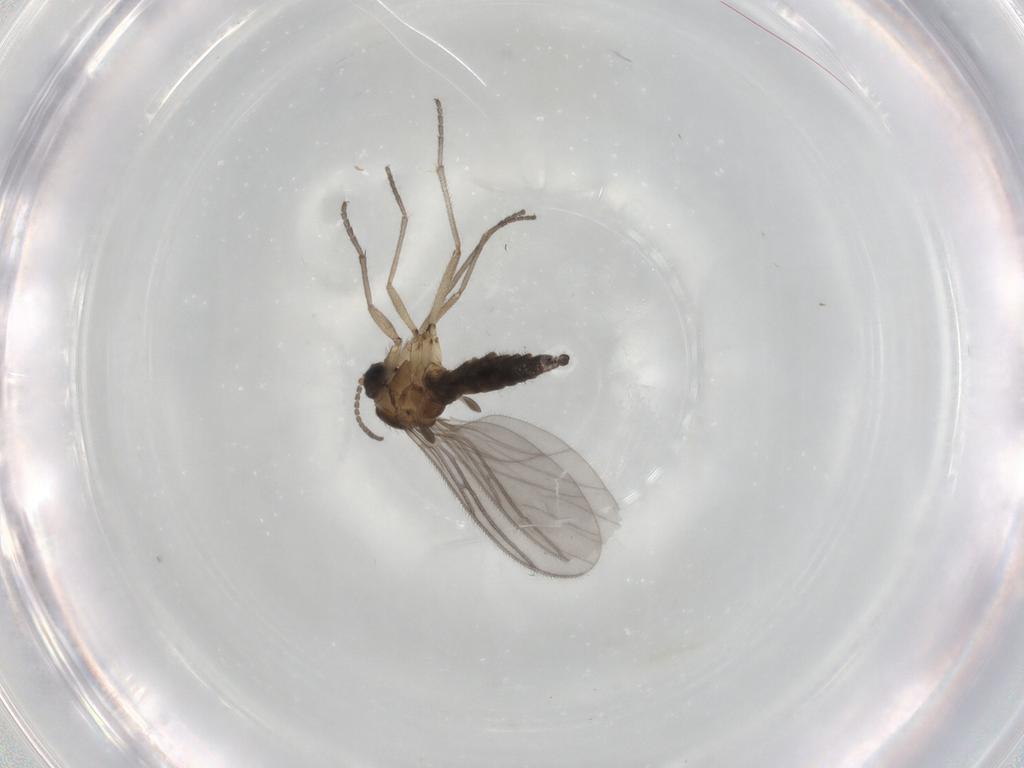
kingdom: Animalia
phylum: Arthropoda
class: Insecta
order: Diptera
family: Sciaridae
